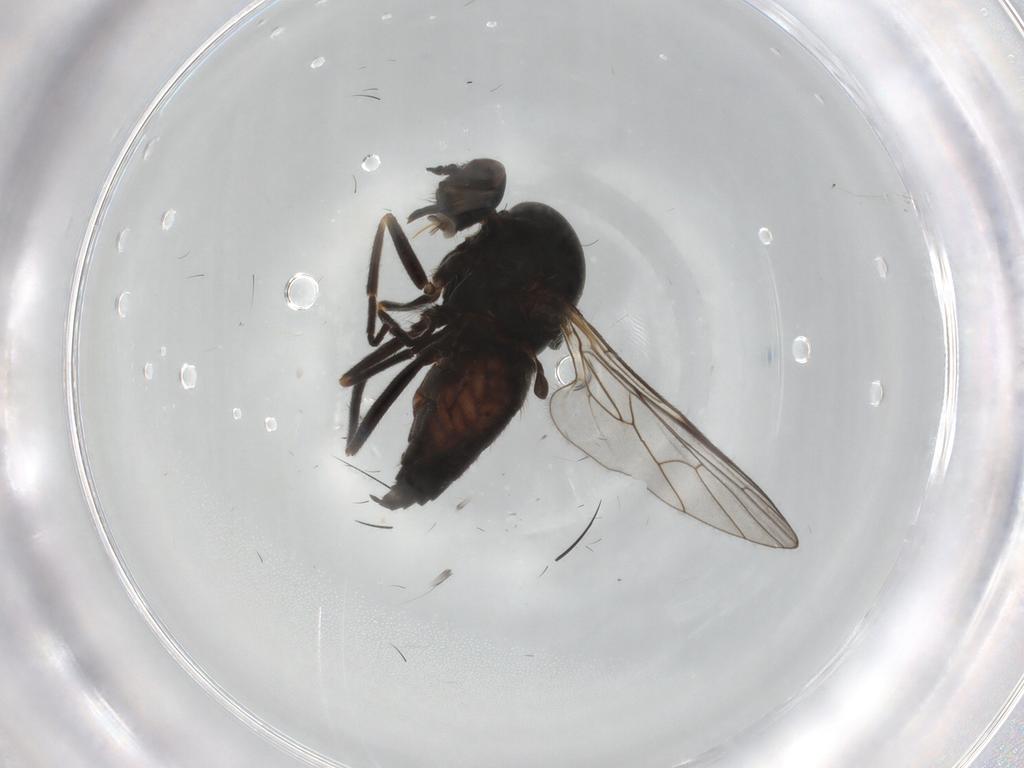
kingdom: Animalia
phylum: Arthropoda
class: Insecta
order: Diptera
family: Empididae
